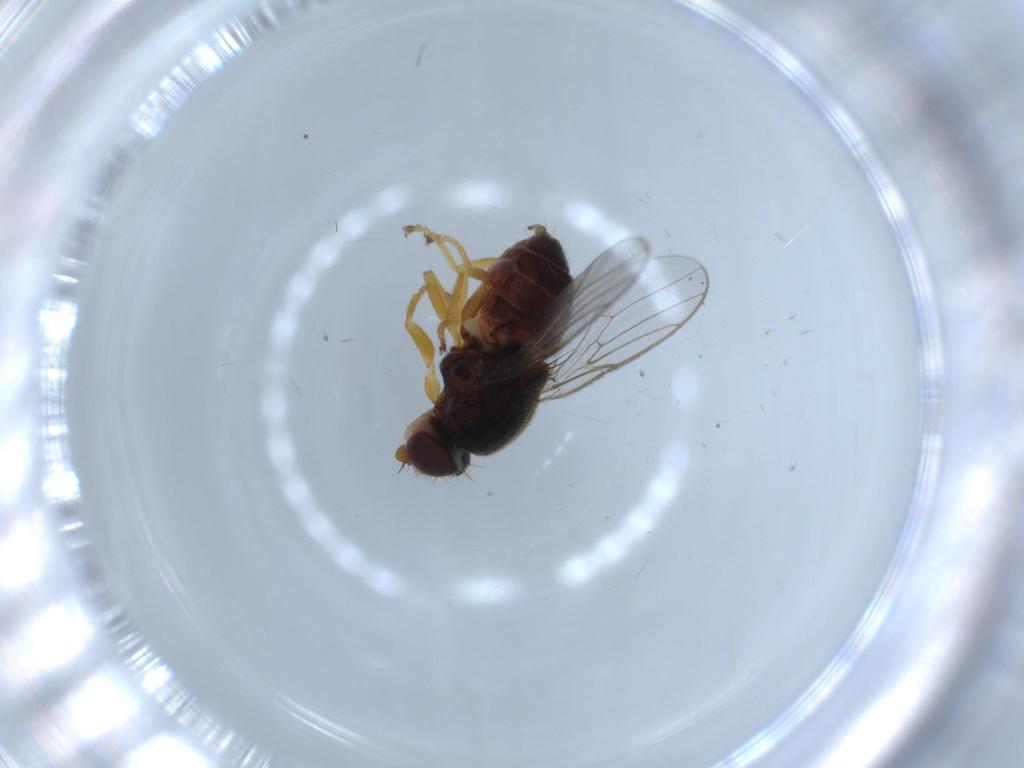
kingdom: Animalia
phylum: Arthropoda
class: Insecta
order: Diptera
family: Chloropidae
